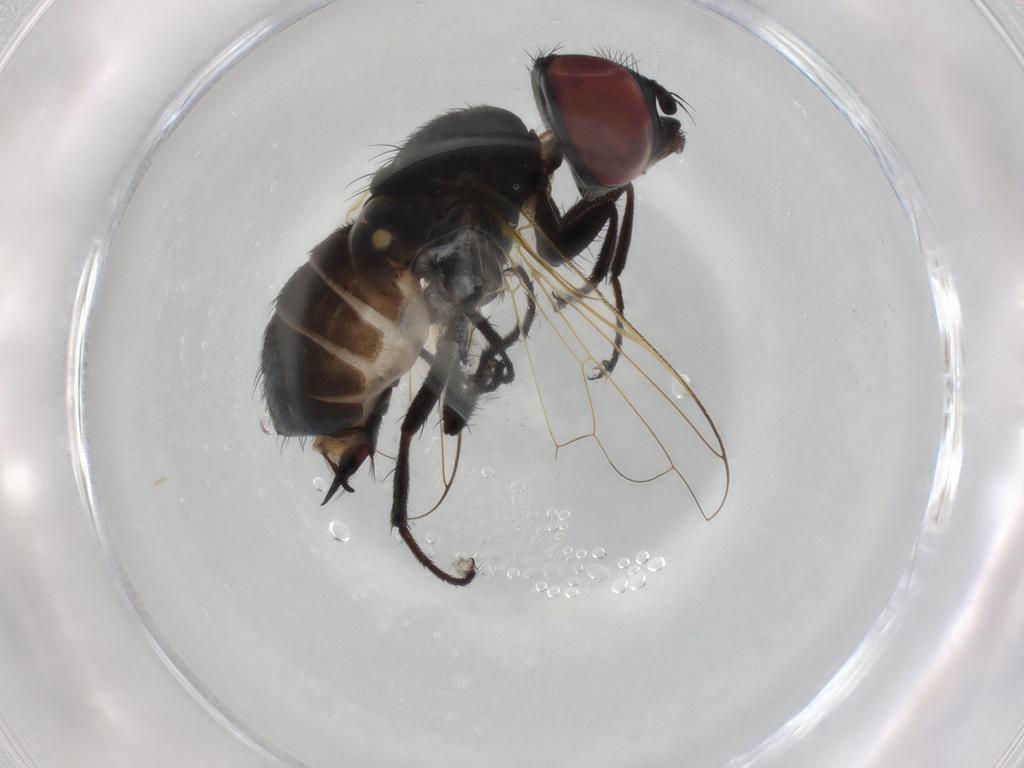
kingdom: Animalia
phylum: Arthropoda
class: Insecta
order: Diptera
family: Tachinidae
